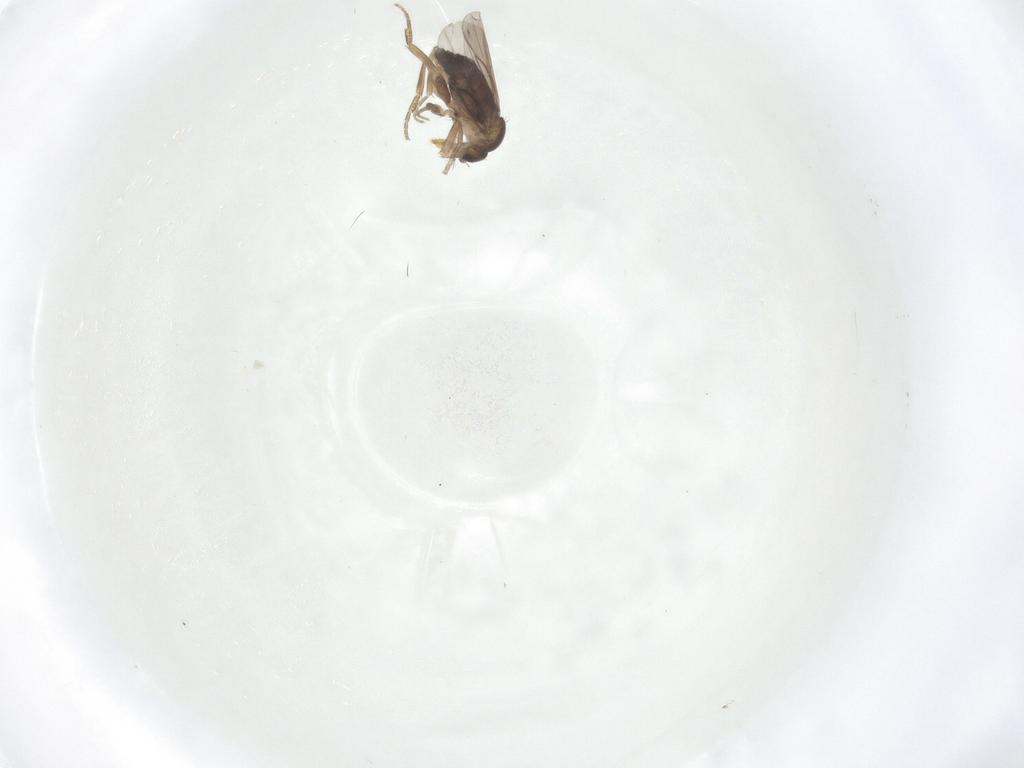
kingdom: Animalia
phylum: Arthropoda
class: Insecta
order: Diptera
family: Phoridae
